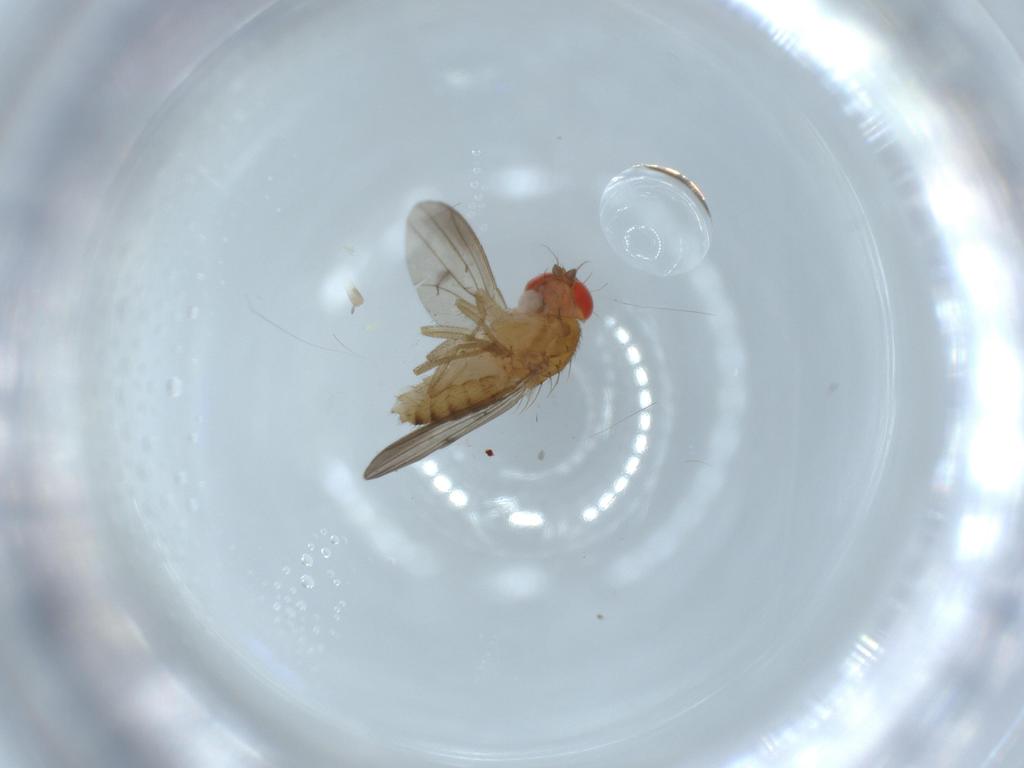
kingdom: Animalia
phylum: Arthropoda
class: Insecta
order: Diptera
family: Drosophilidae
